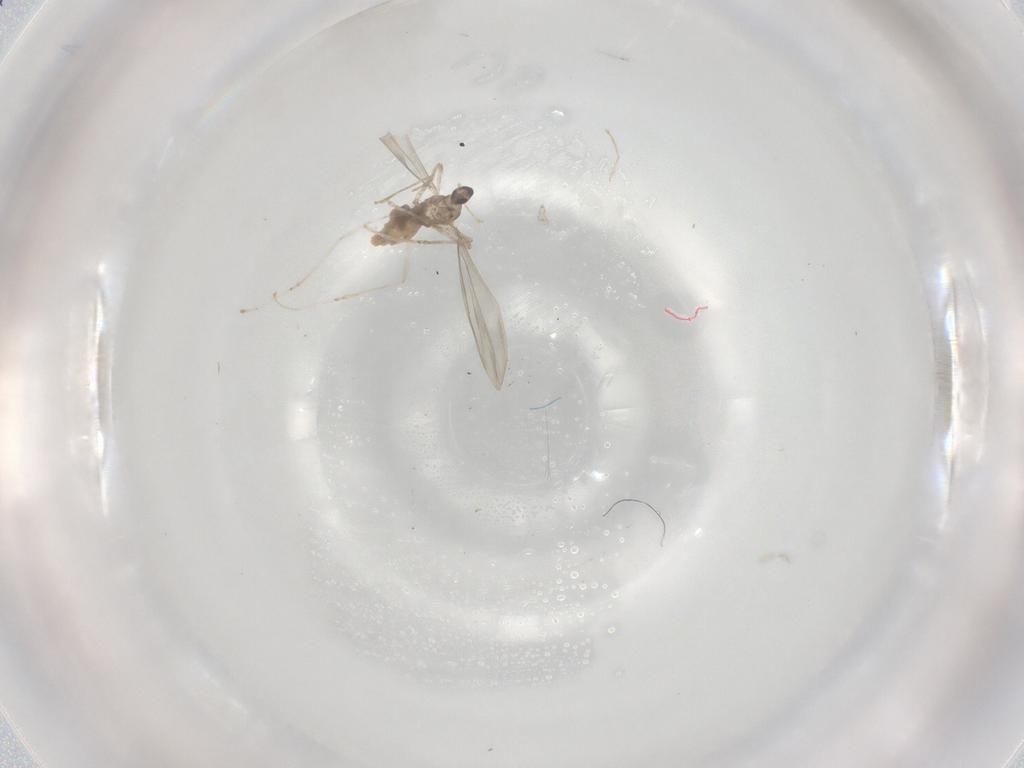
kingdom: Animalia
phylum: Arthropoda
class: Insecta
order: Diptera
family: Cecidomyiidae
